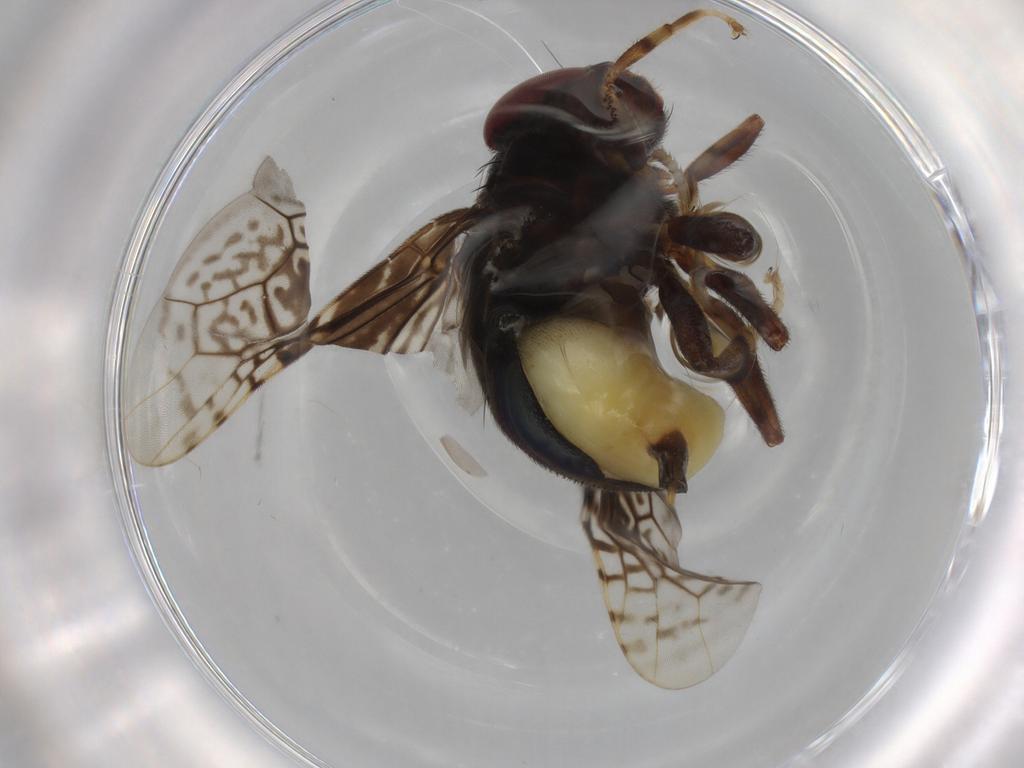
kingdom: Animalia
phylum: Arthropoda
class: Insecta
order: Diptera
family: Platystomatidae
